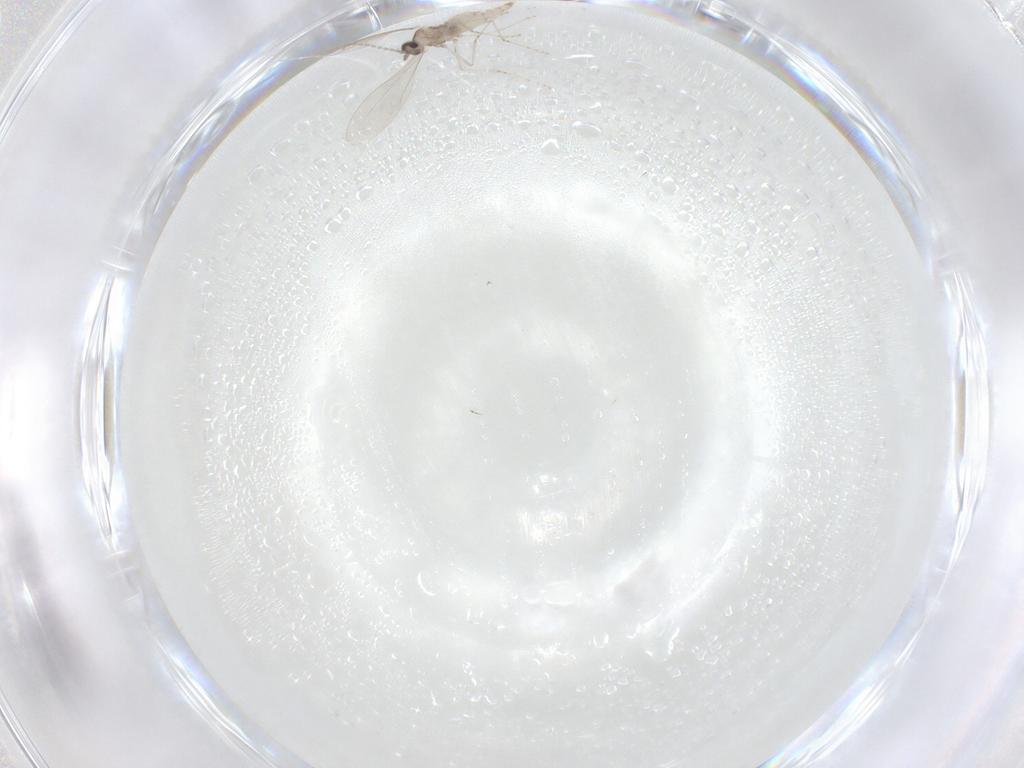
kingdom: Animalia
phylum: Arthropoda
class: Insecta
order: Diptera
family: Cecidomyiidae
